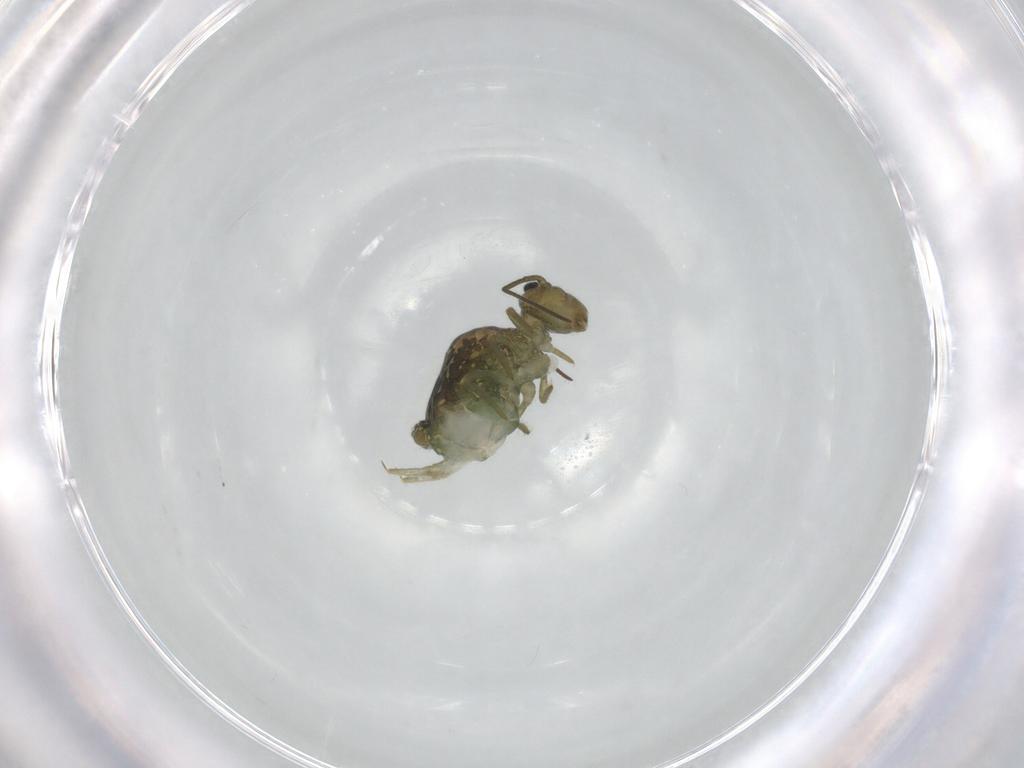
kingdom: Animalia
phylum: Arthropoda
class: Collembola
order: Symphypleona
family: Sminthuridae
